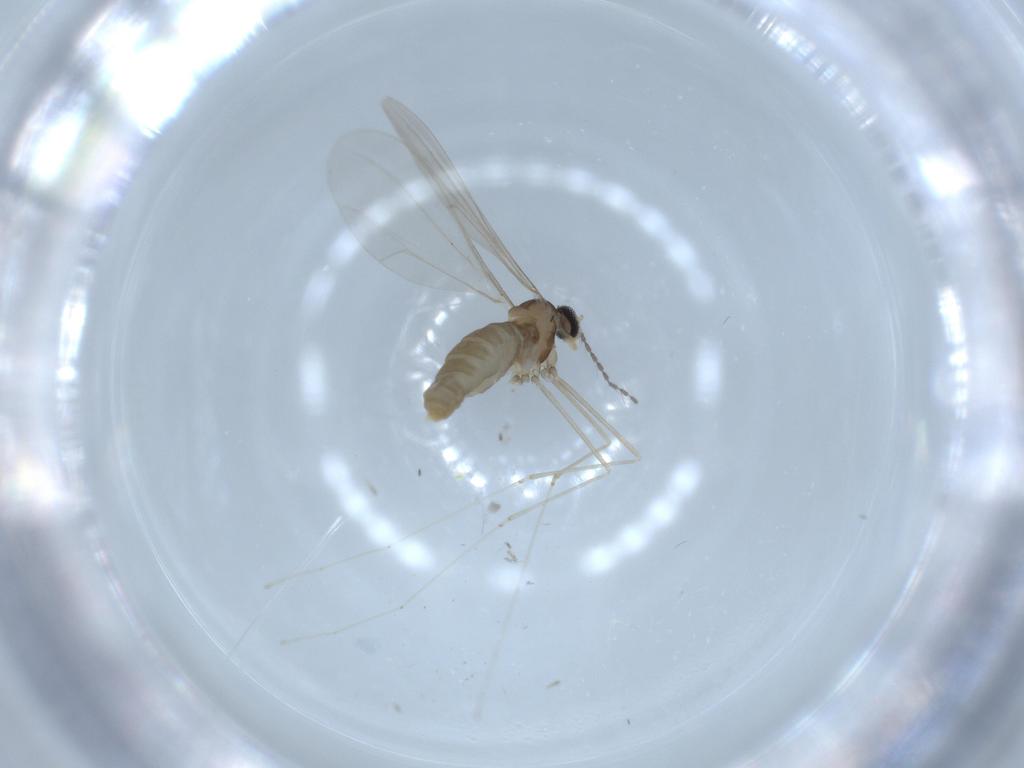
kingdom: Animalia
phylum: Arthropoda
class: Insecta
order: Diptera
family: Cecidomyiidae
